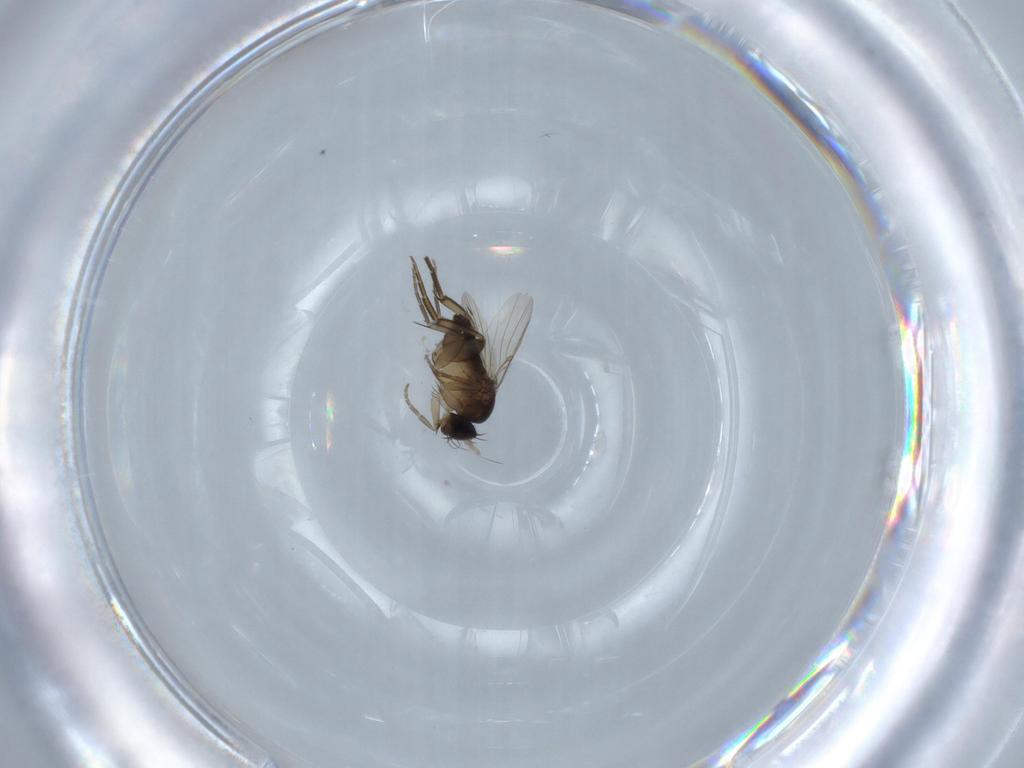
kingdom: Animalia
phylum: Arthropoda
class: Insecta
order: Diptera
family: Phoridae
